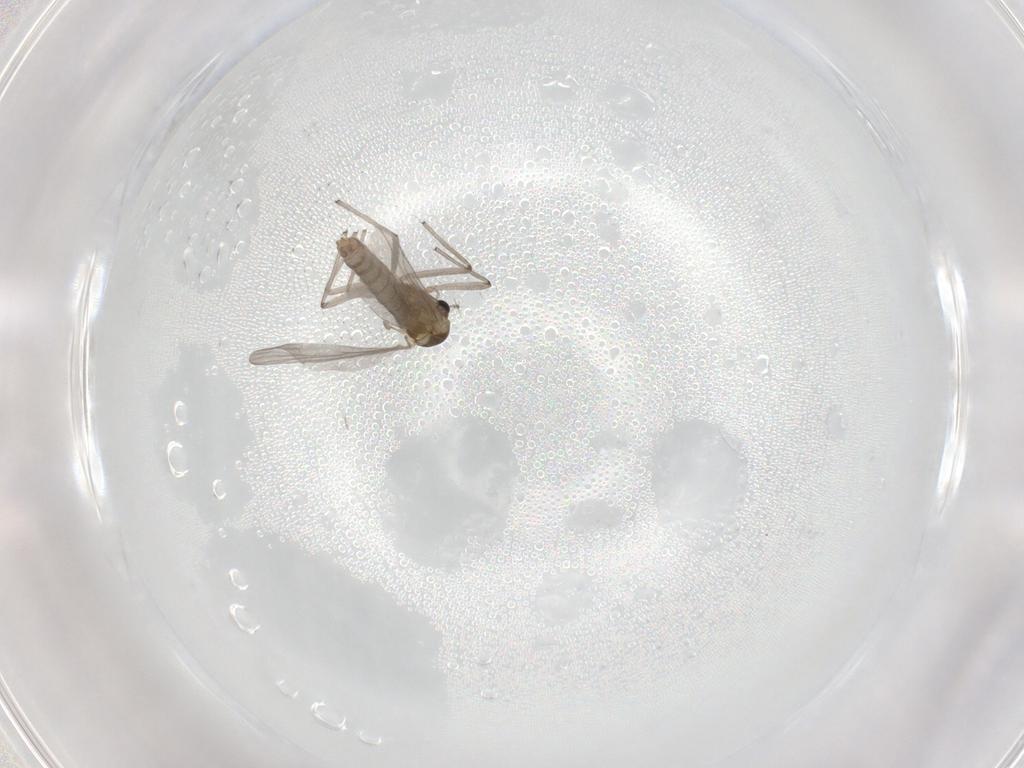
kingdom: Animalia
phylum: Arthropoda
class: Insecta
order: Diptera
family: Chironomidae
